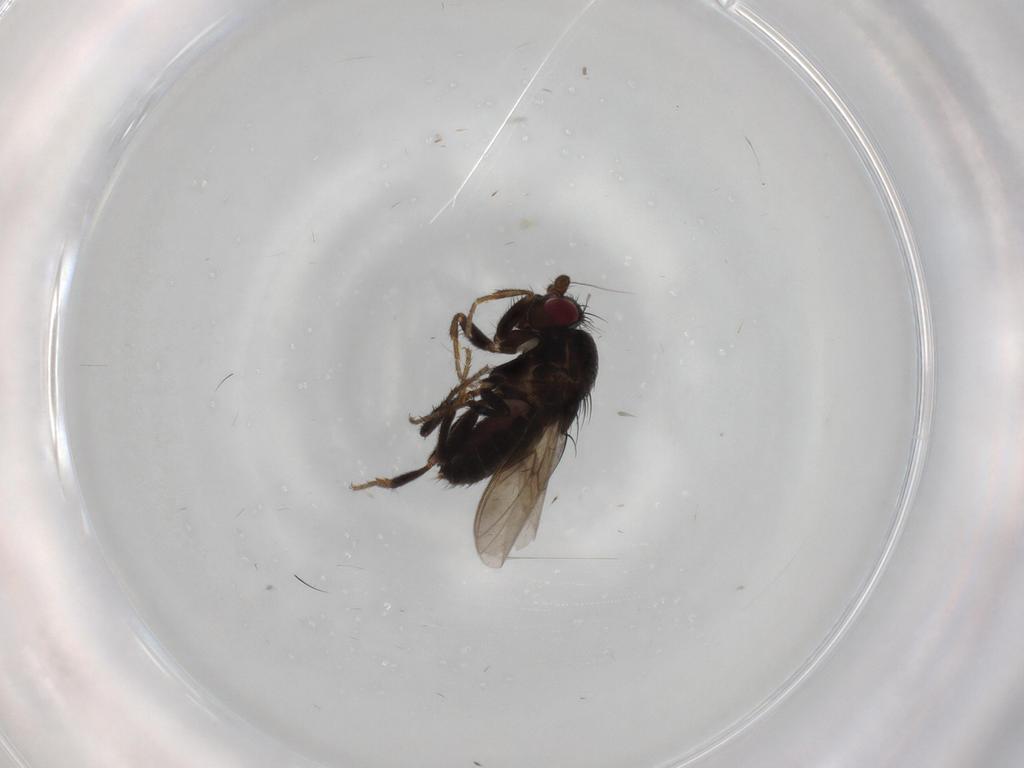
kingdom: Animalia
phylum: Arthropoda
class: Insecta
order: Diptera
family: Sphaeroceridae
